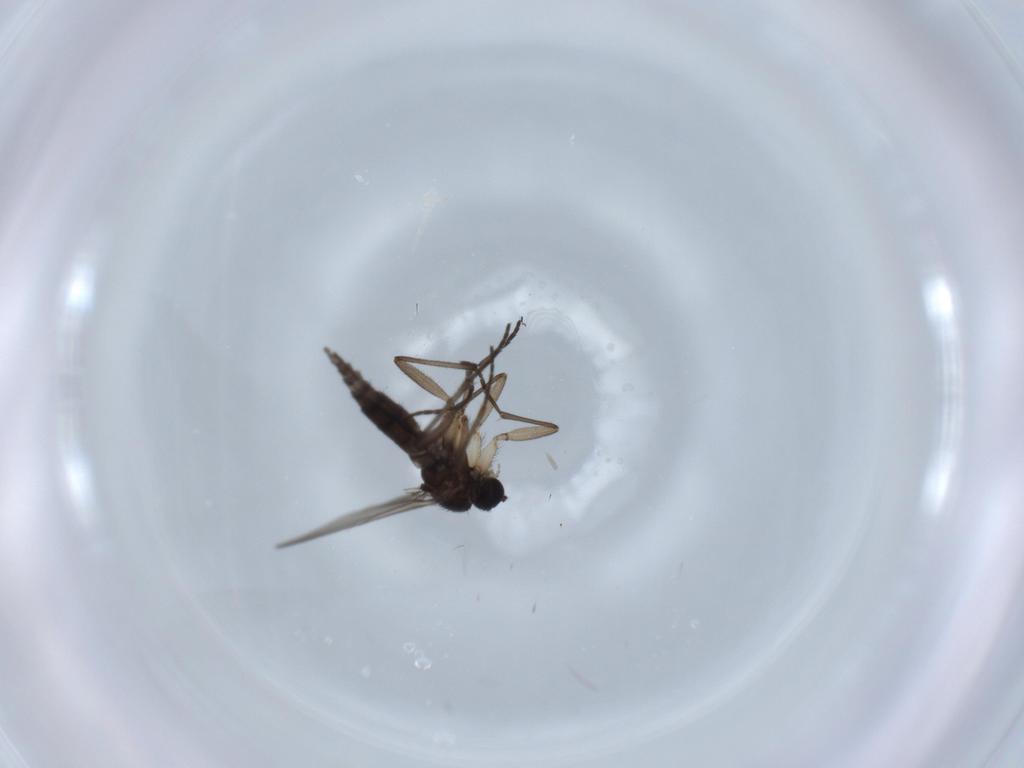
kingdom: Animalia
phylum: Arthropoda
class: Insecta
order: Diptera
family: Sciaridae
